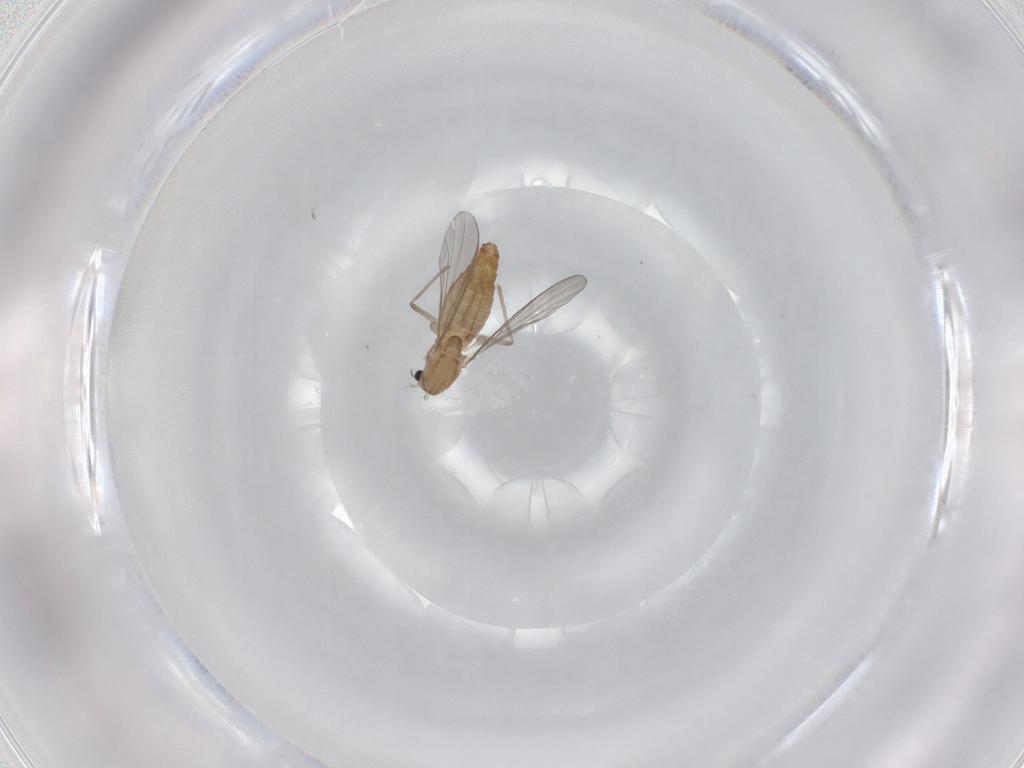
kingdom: Animalia
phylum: Arthropoda
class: Insecta
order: Diptera
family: Chironomidae
